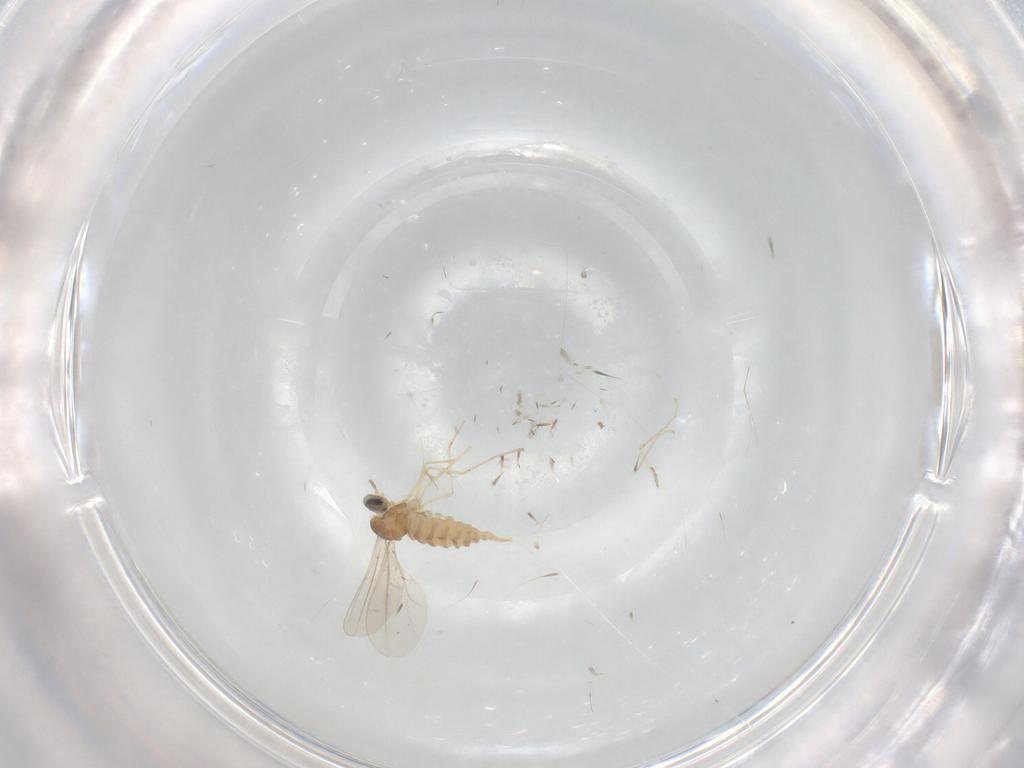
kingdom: Animalia
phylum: Arthropoda
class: Insecta
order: Diptera
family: Cecidomyiidae
